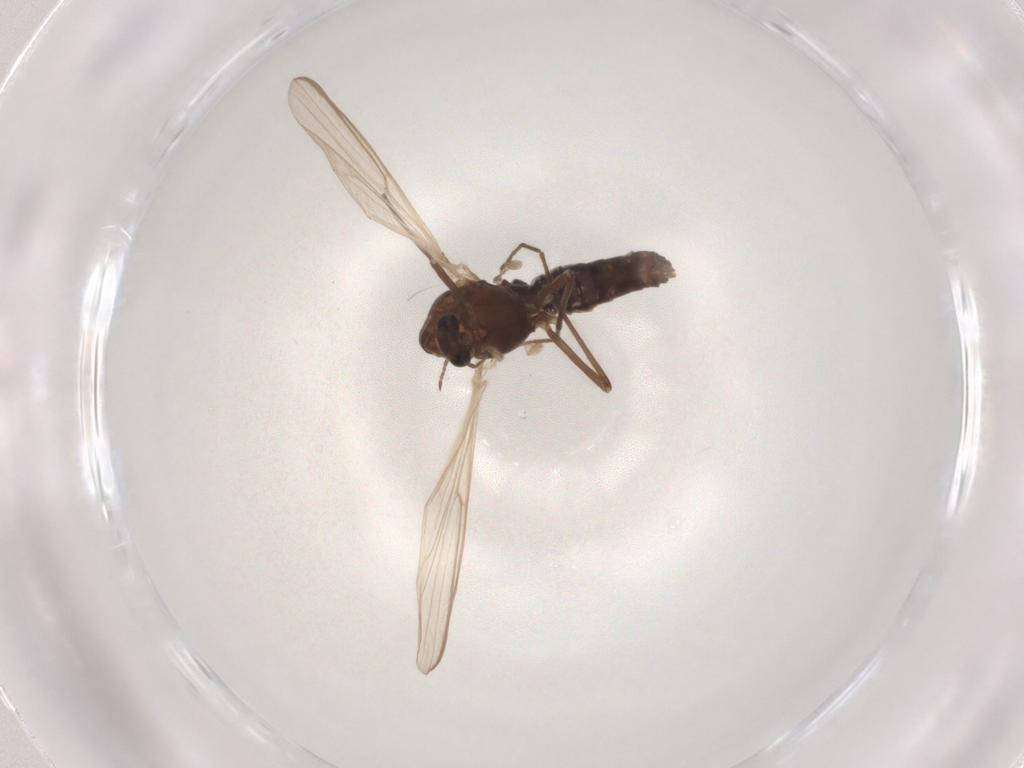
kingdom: Animalia
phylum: Arthropoda
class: Insecta
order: Diptera
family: Chironomidae
